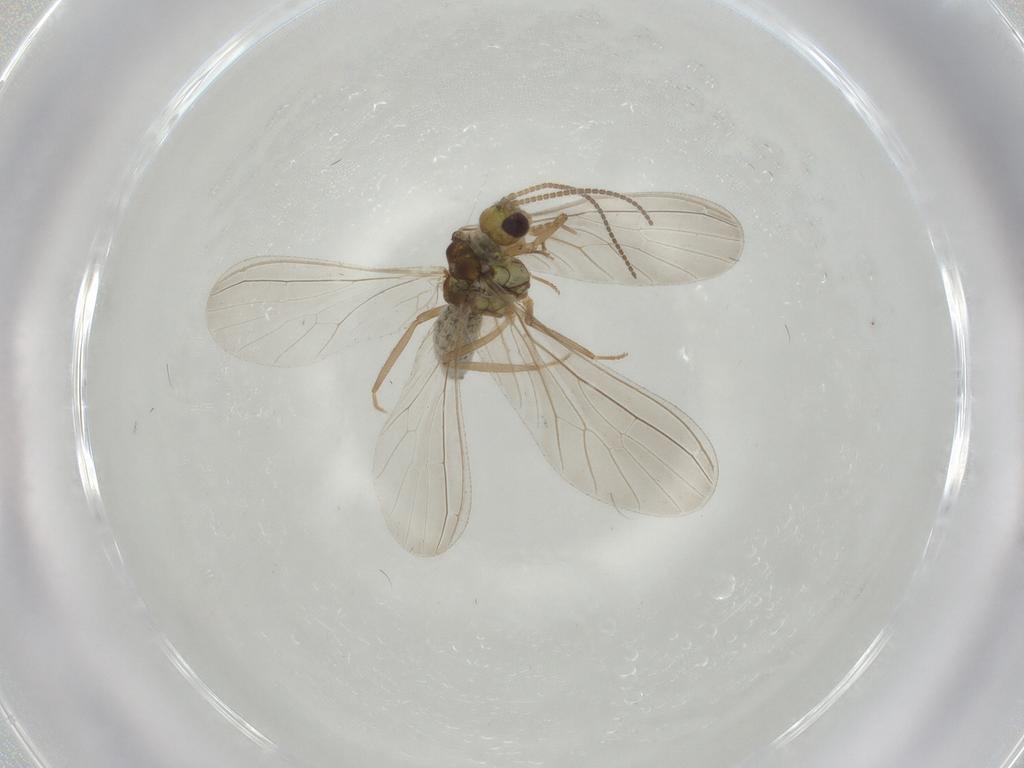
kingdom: Animalia
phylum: Arthropoda
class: Insecta
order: Neuroptera
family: Coniopterygidae
